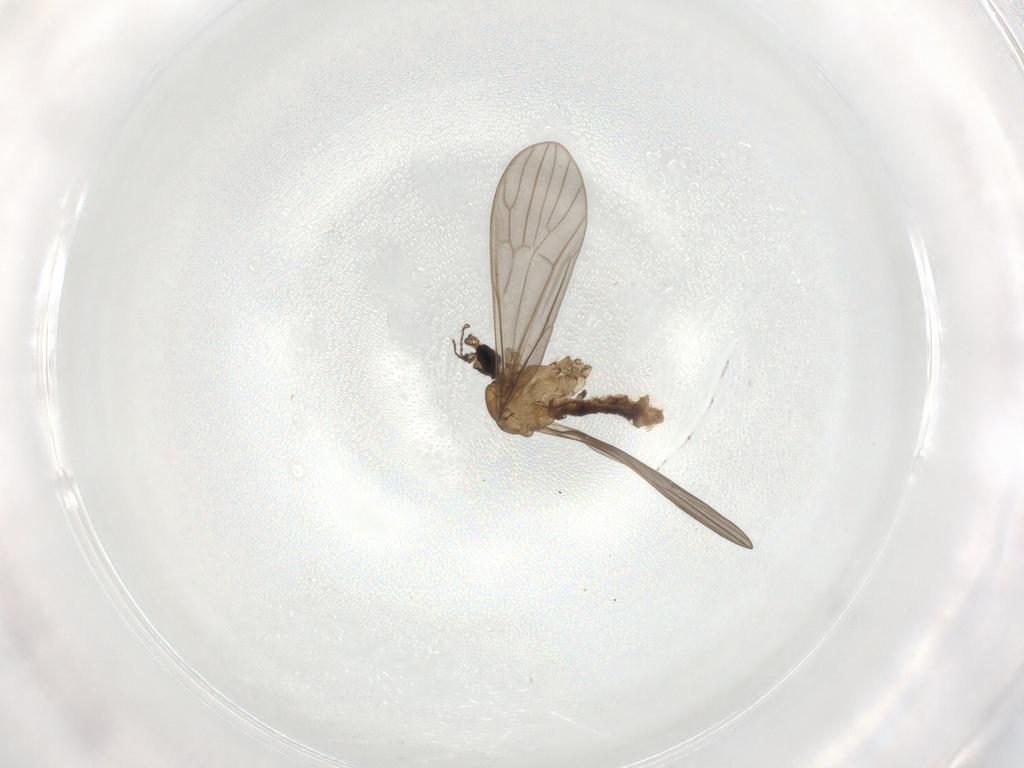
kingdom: Animalia
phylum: Arthropoda
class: Insecta
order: Diptera
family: Limoniidae
